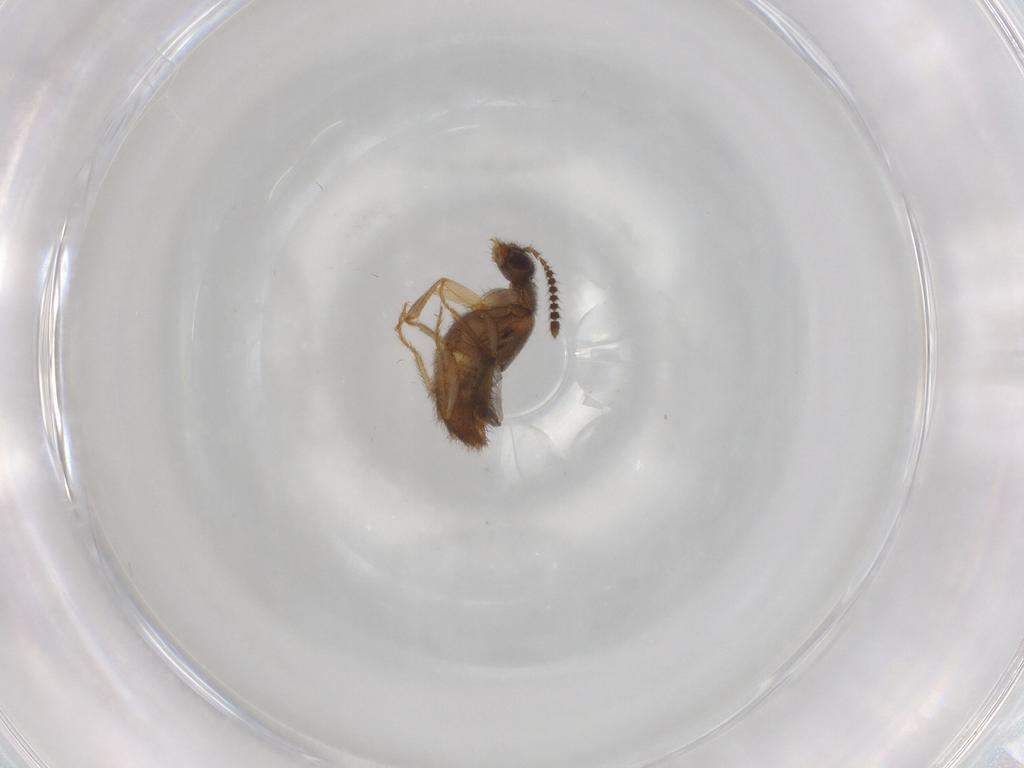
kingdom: Animalia
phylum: Arthropoda
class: Insecta
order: Coleoptera
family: Staphylinidae
